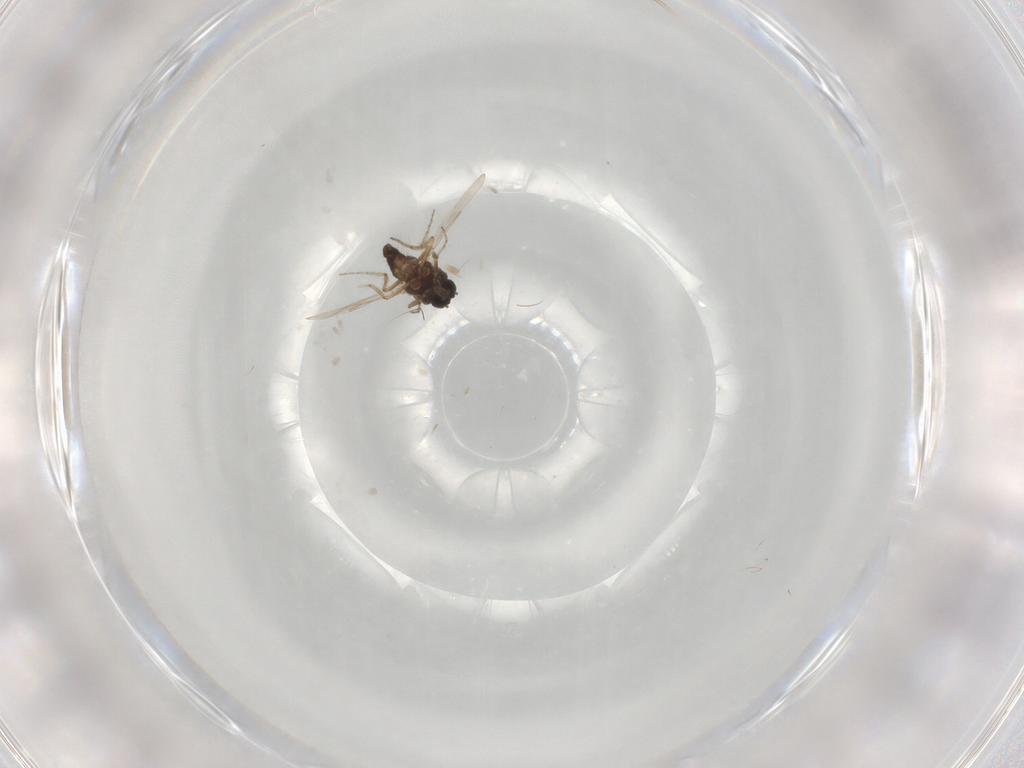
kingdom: Animalia
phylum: Arthropoda
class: Insecta
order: Diptera
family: Ceratopogonidae
